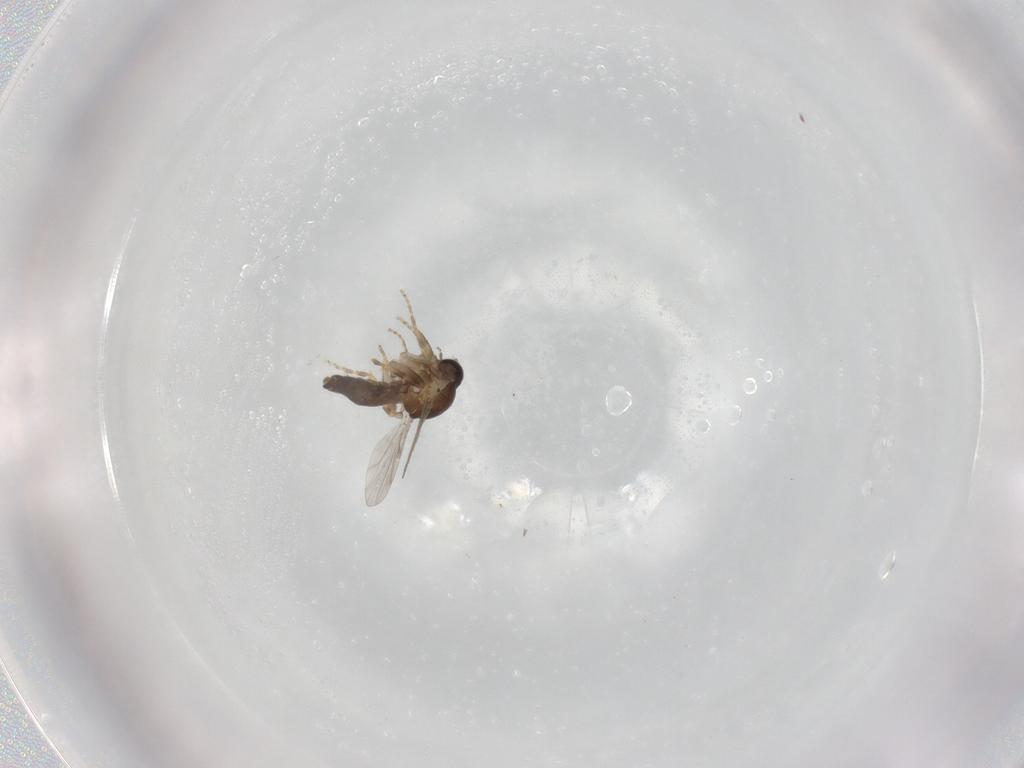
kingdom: Animalia
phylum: Arthropoda
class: Insecta
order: Diptera
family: Ceratopogonidae
